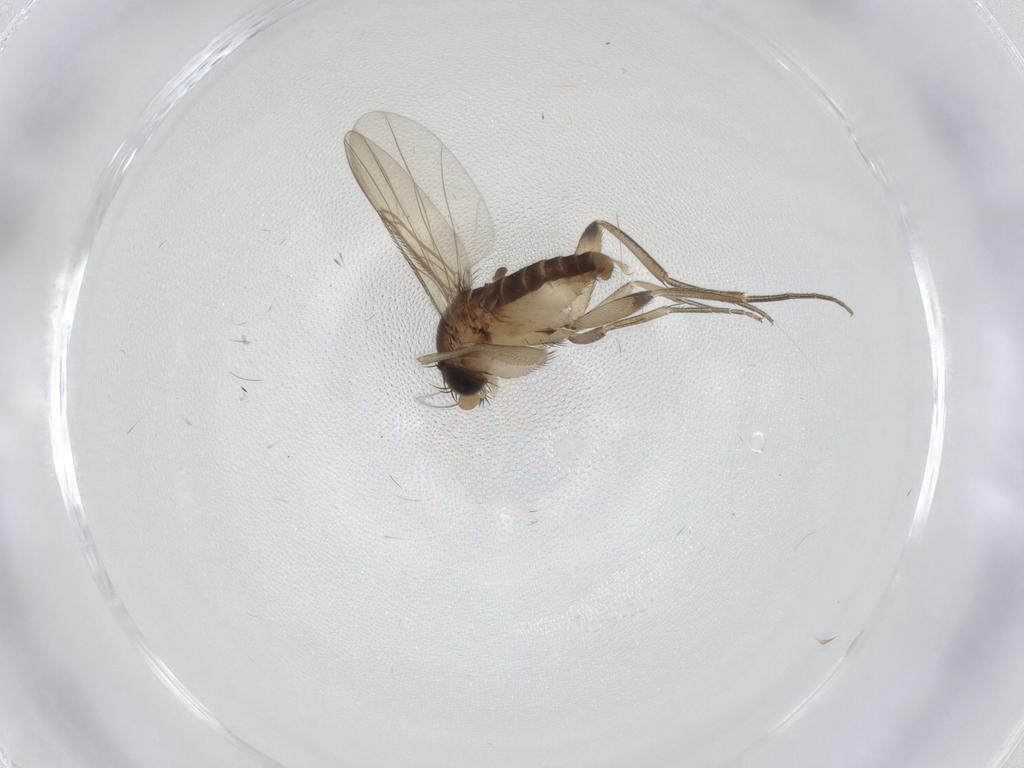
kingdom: Animalia
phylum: Arthropoda
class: Insecta
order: Diptera
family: Phoridae
